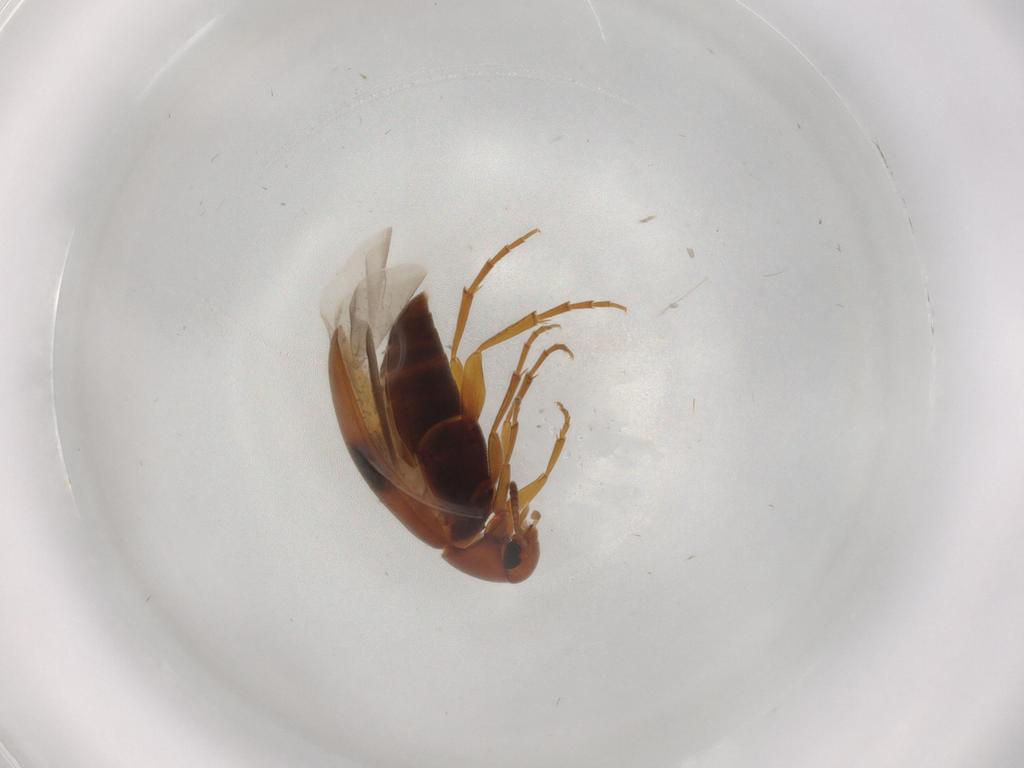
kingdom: Animalia
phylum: Arthropoda
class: Insecta
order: Coleoptera
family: Scraptiidae
